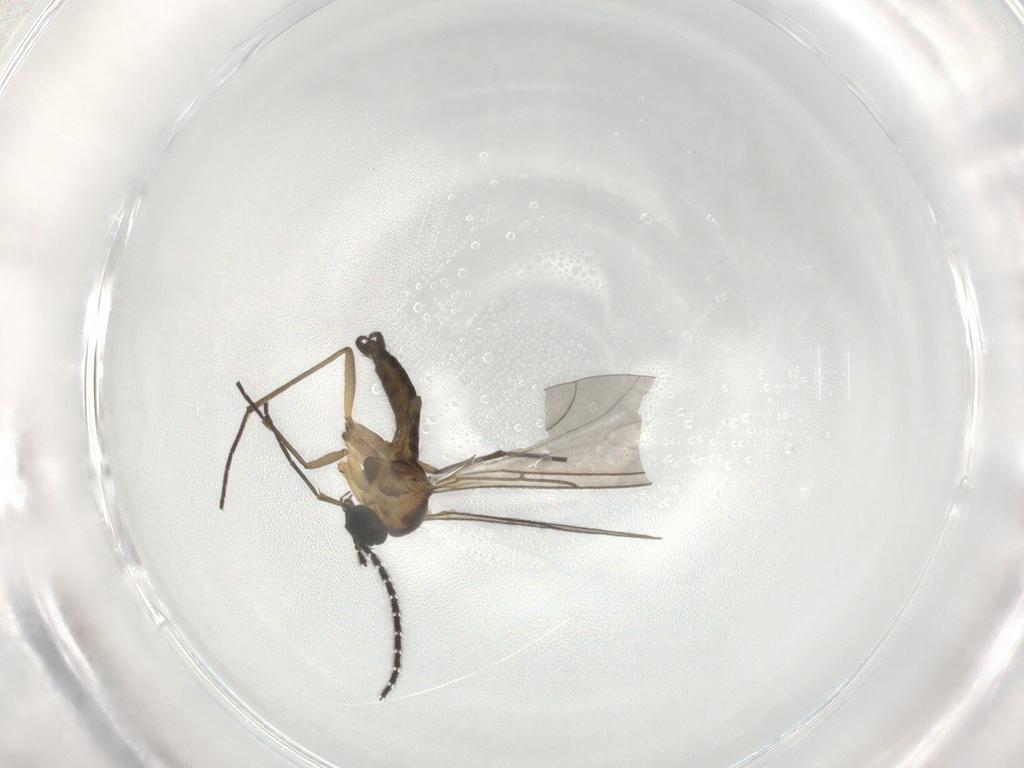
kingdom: Animalia
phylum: Arthropoda
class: Insecta
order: Diptera
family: Sciaridae
